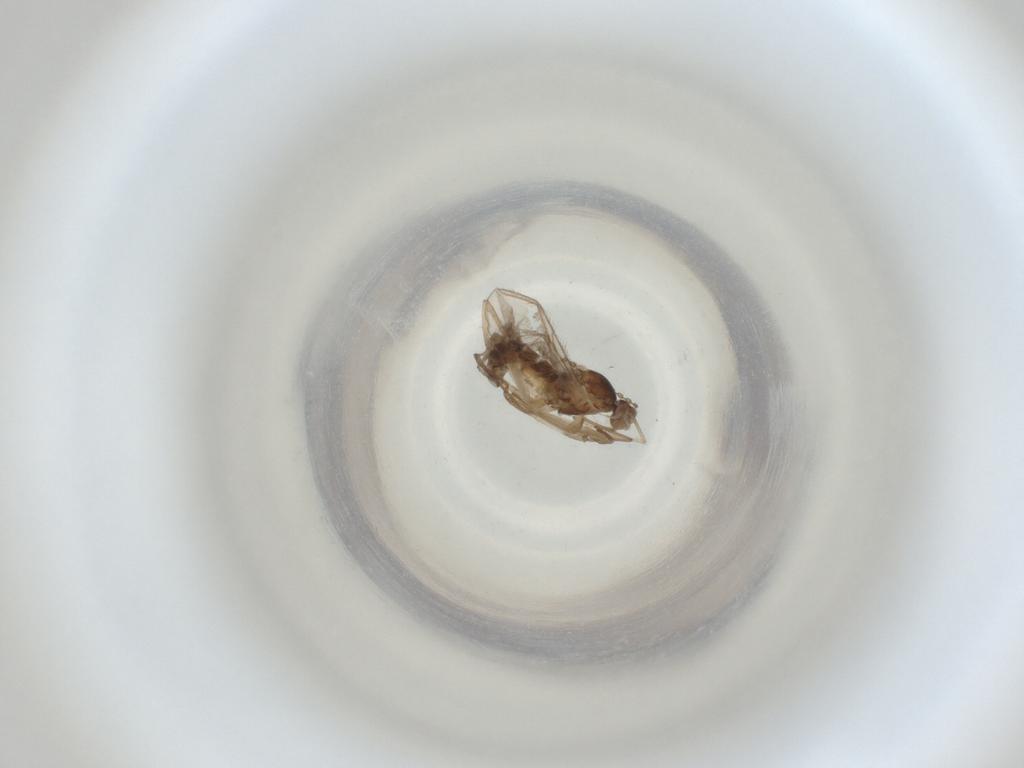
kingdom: Animalia
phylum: Arthropoda
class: Insecta
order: Diptera
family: Cecidomyiidae
